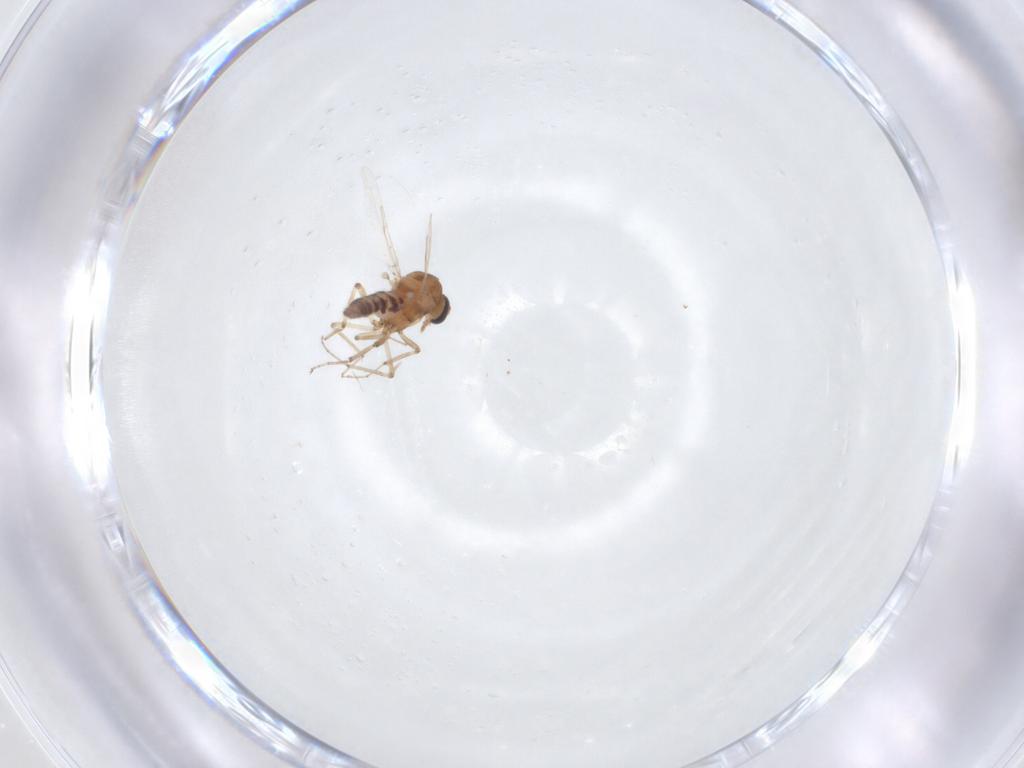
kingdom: Animalia
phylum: Arthropoda
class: Insecta
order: Diptera
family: Ceratopogonidae
